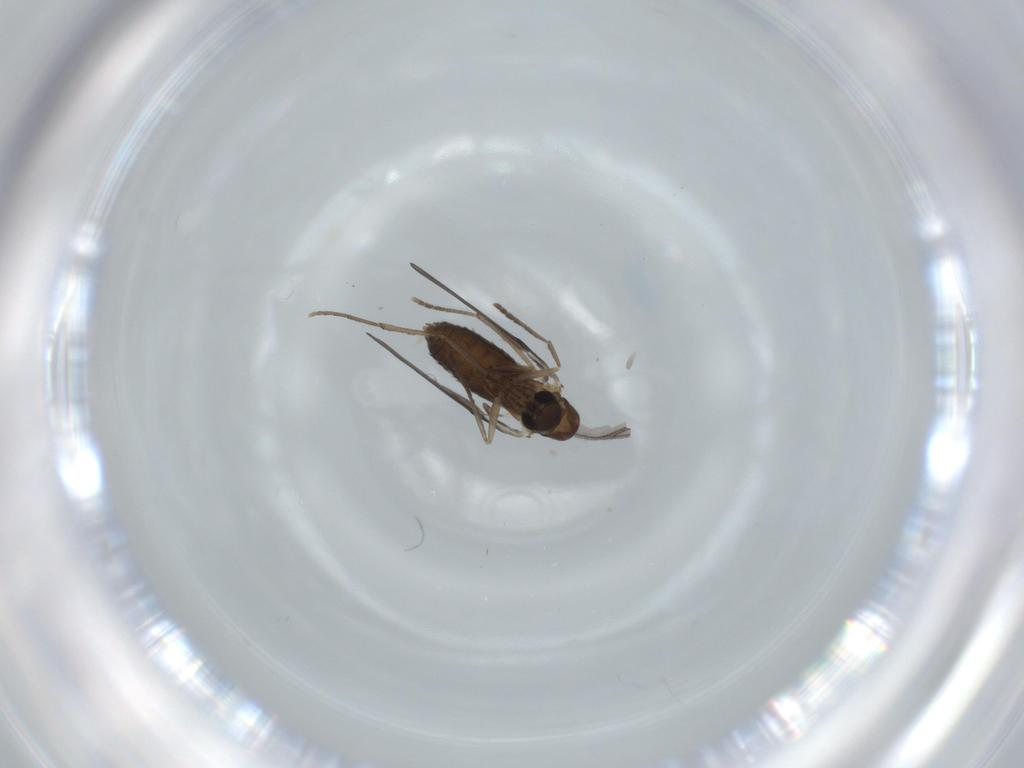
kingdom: Animalia
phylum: Arthropoda
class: Insecta
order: Diptera
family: Psychodidae
